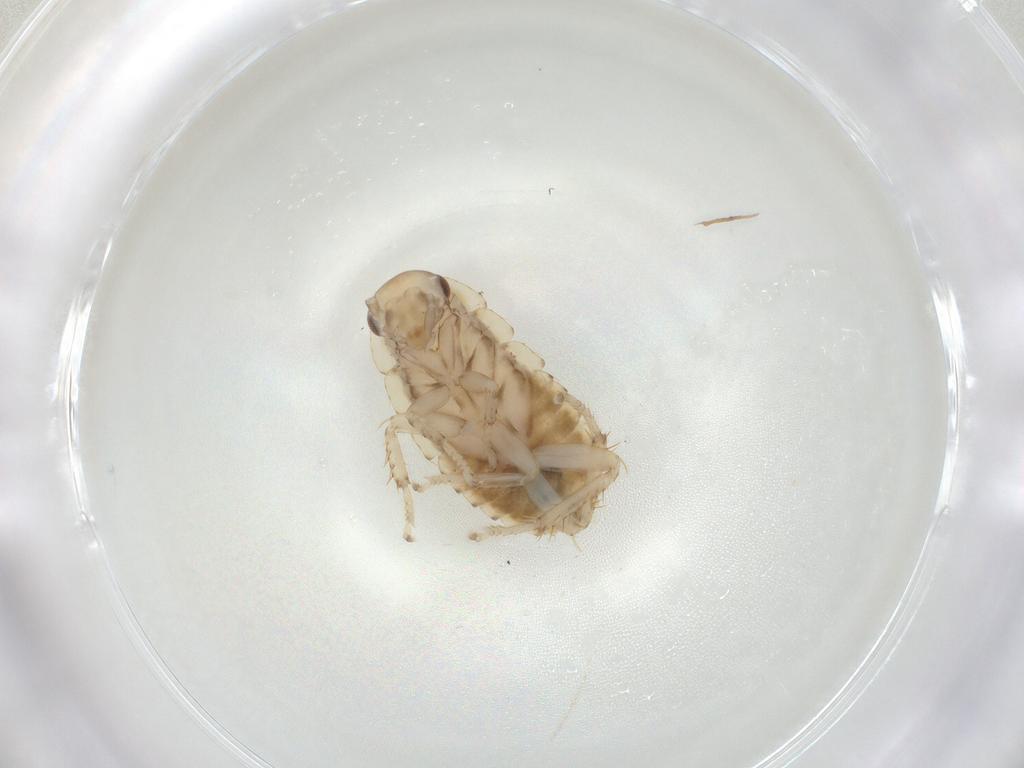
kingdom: Animalia
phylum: Arthropoda
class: Insecta
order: Blattodea
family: Blaberidae
